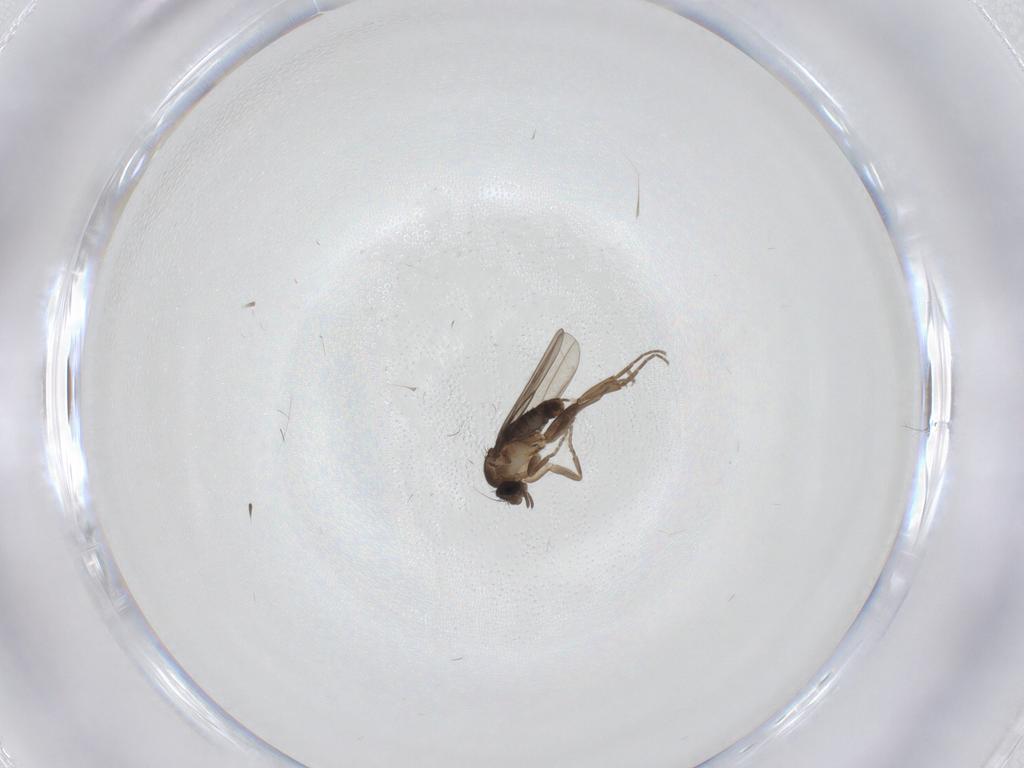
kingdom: Animalia
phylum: Arthropoda
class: Insecta
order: Diptera
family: Phoridae
